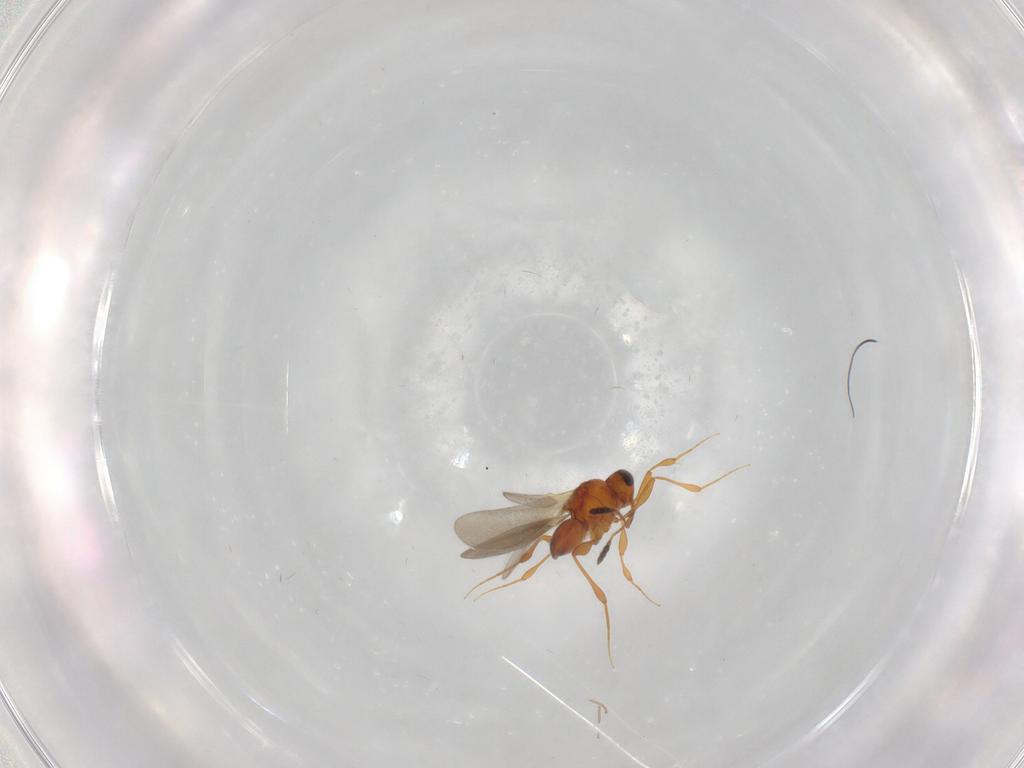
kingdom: Animalia
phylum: Arthropoda
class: Insecta
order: Hymenoptera
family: Platygastridae
